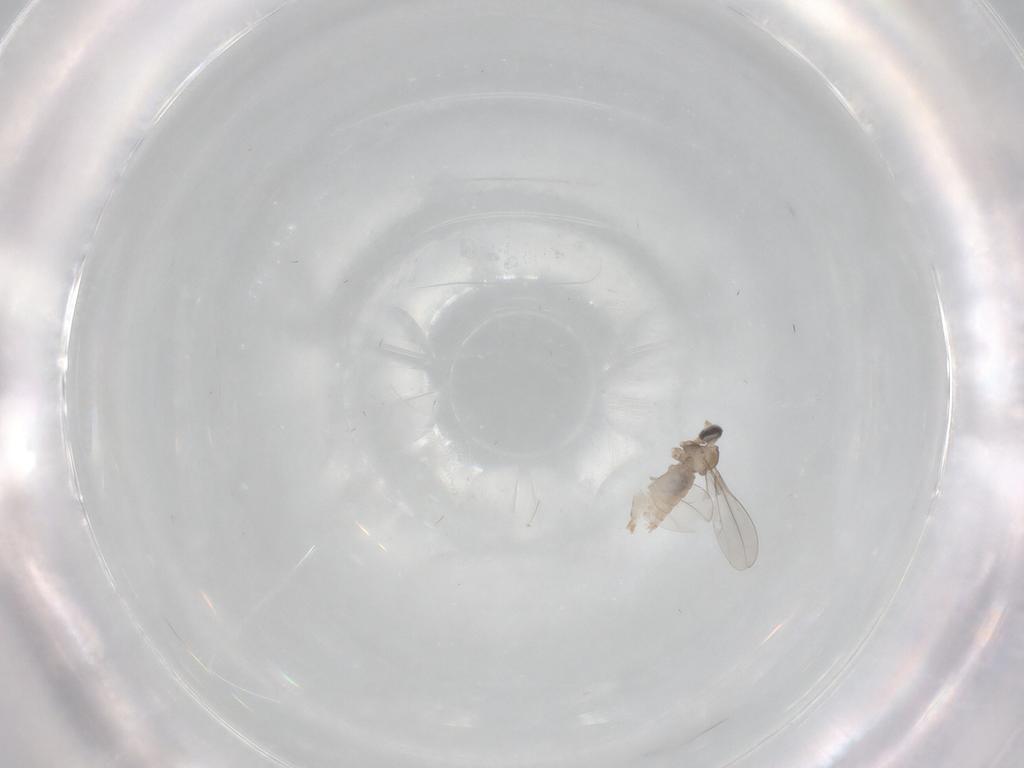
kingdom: Animalia
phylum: Arthropoda
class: Insecta
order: Diptera
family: Cecidomyiidae
